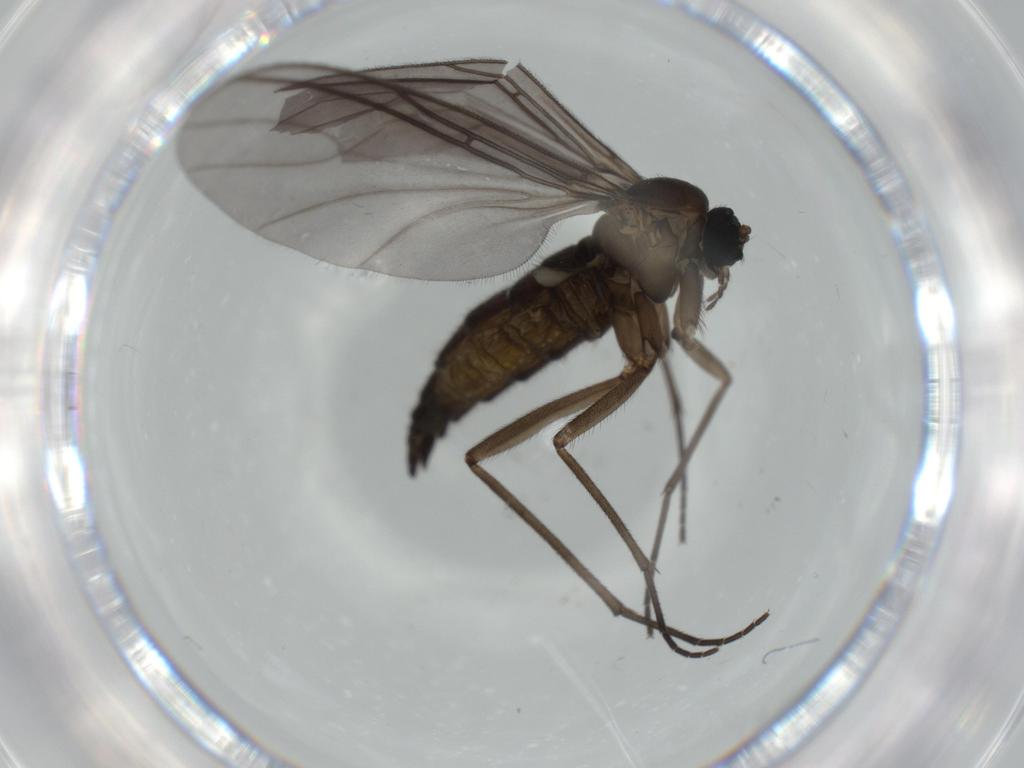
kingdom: Animalia
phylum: Arthropoda
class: Insecta
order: Diptera
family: Sciaridae
